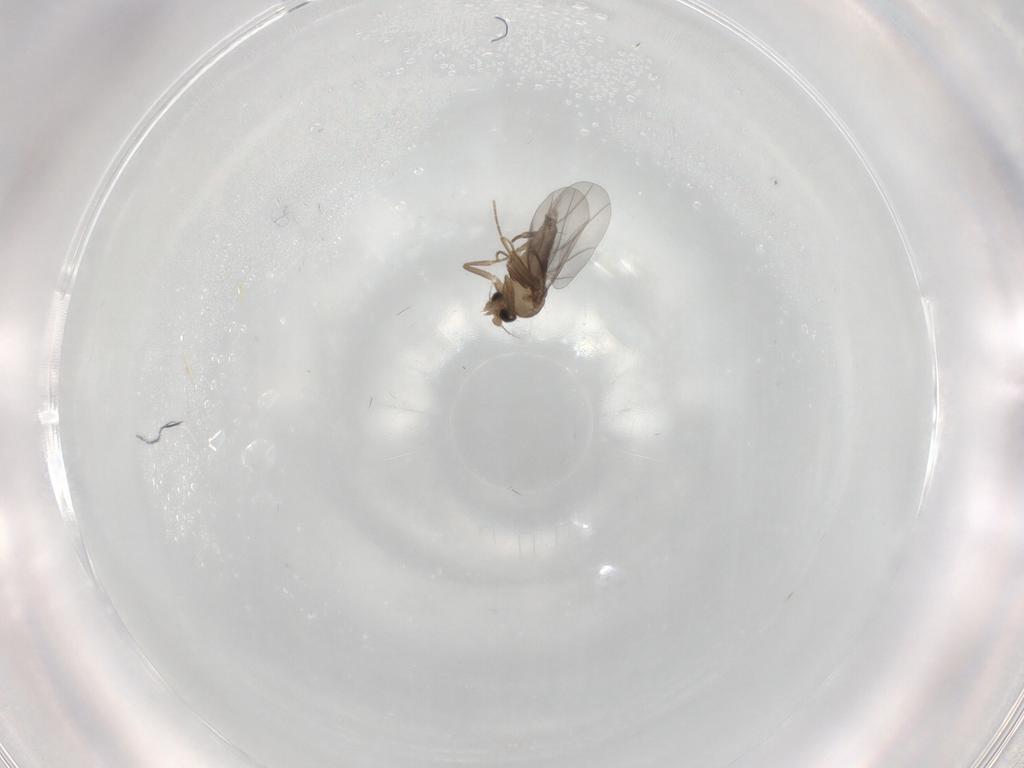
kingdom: Animalia
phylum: Arthropoda
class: Insecta
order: Diptera
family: Cecidomyiidae
